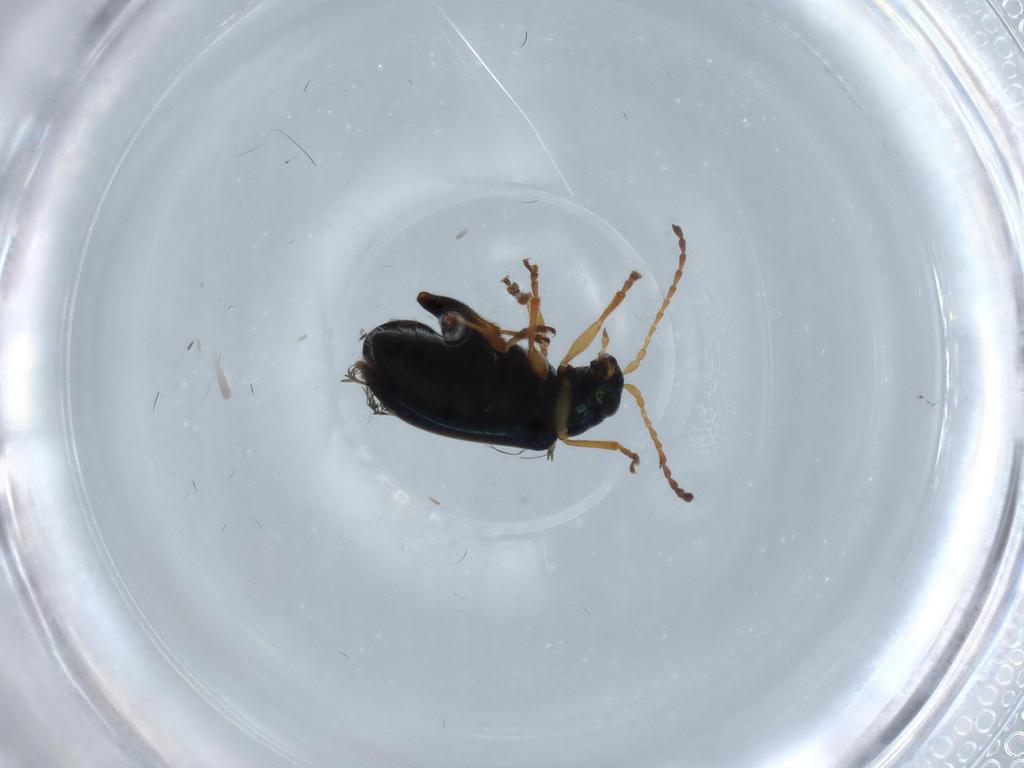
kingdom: Animalia
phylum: Arthropoda
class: Insecta
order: Coleoptera
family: Chrysomelidae
